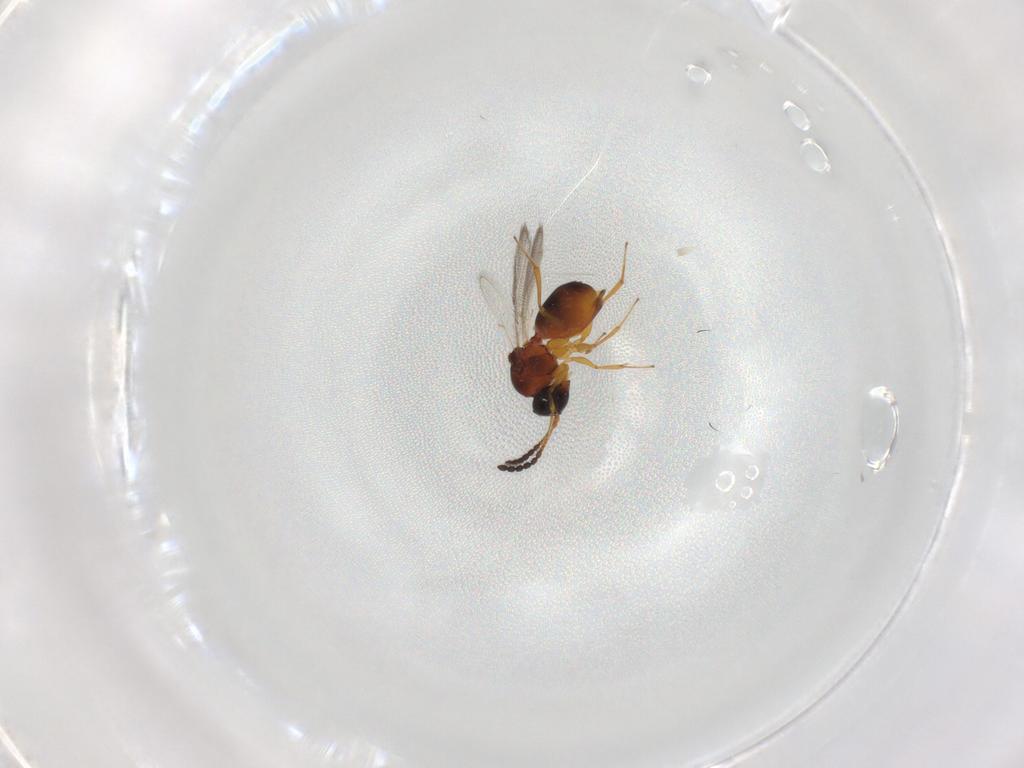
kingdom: Animalia
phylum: Arthropoda
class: Insecta
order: Hymenoptera
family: Cynipidae
